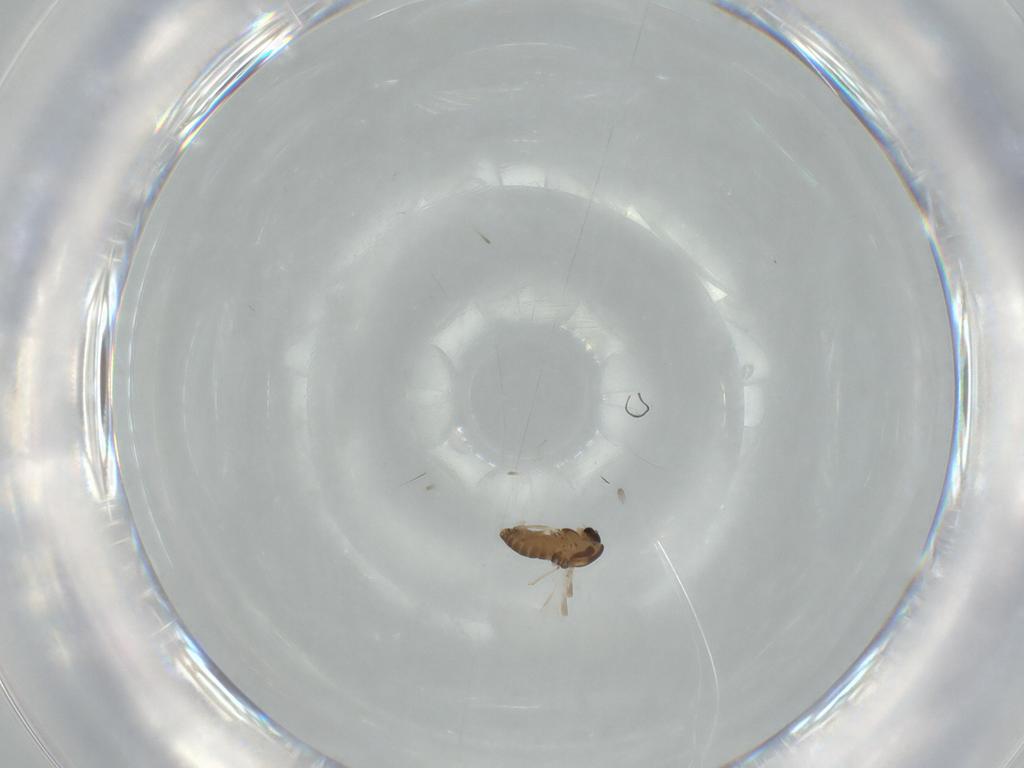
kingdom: Animalia
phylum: Arthropoda
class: Insecta
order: Diptera
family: Chironomidae
